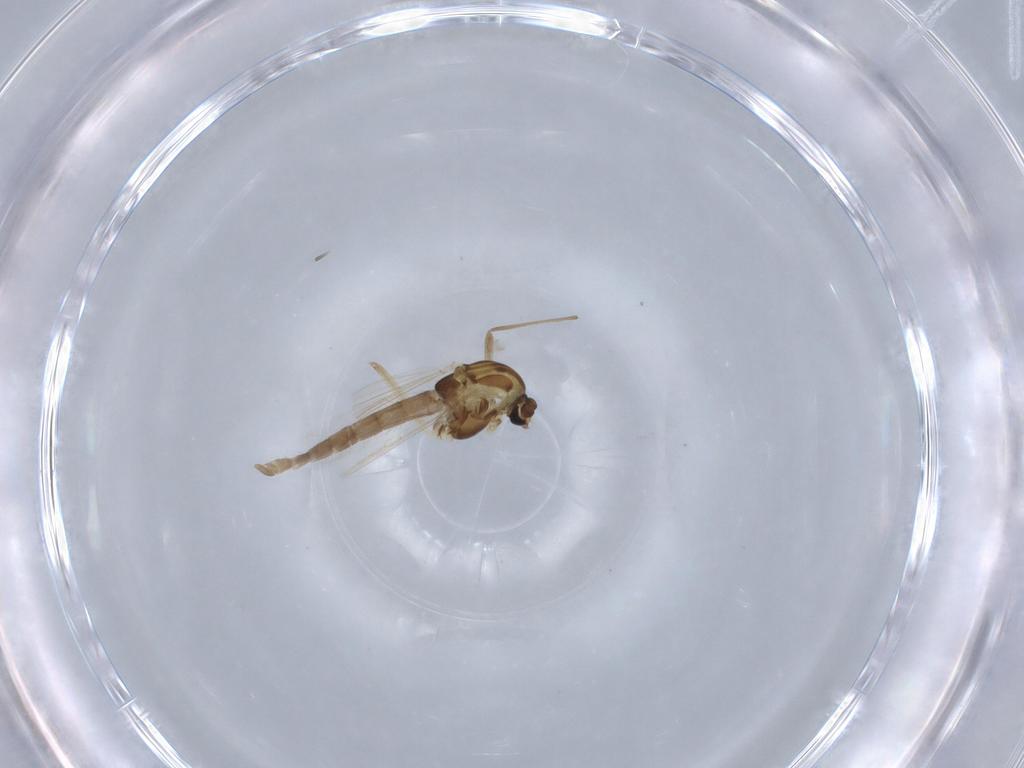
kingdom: Animalia
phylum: Arthropoda
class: Insecta
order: Diptera
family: Chironomidae
